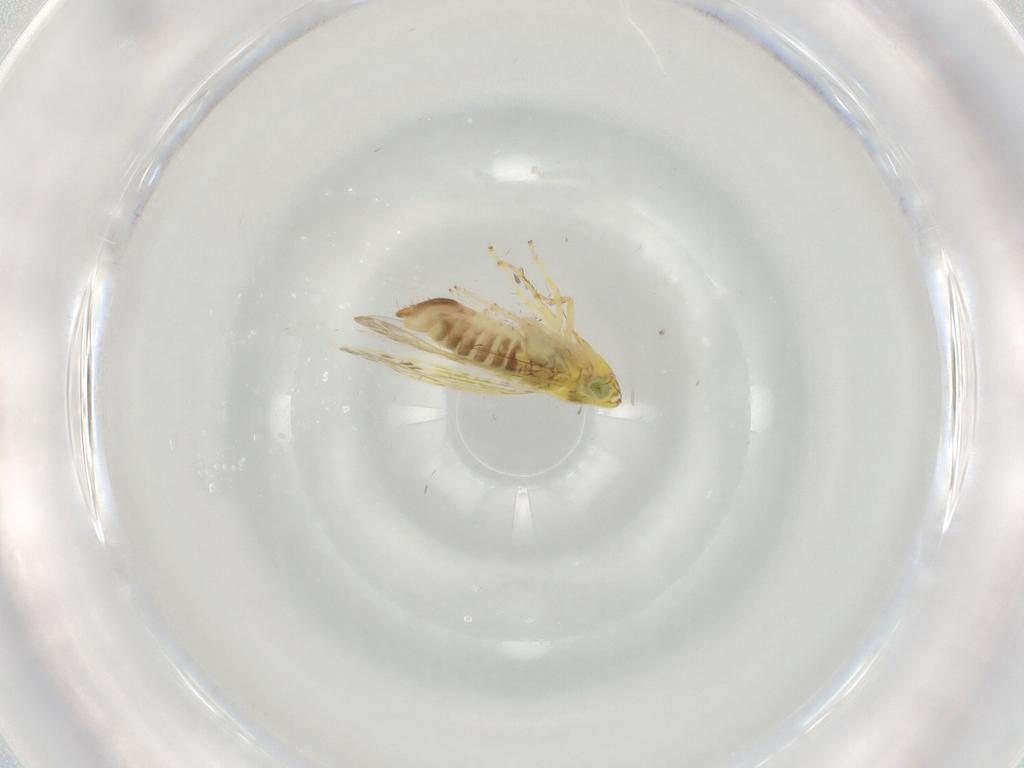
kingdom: Animalia
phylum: Arthropoda
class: Insecta
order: Hemiptera
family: Cicadellidae
